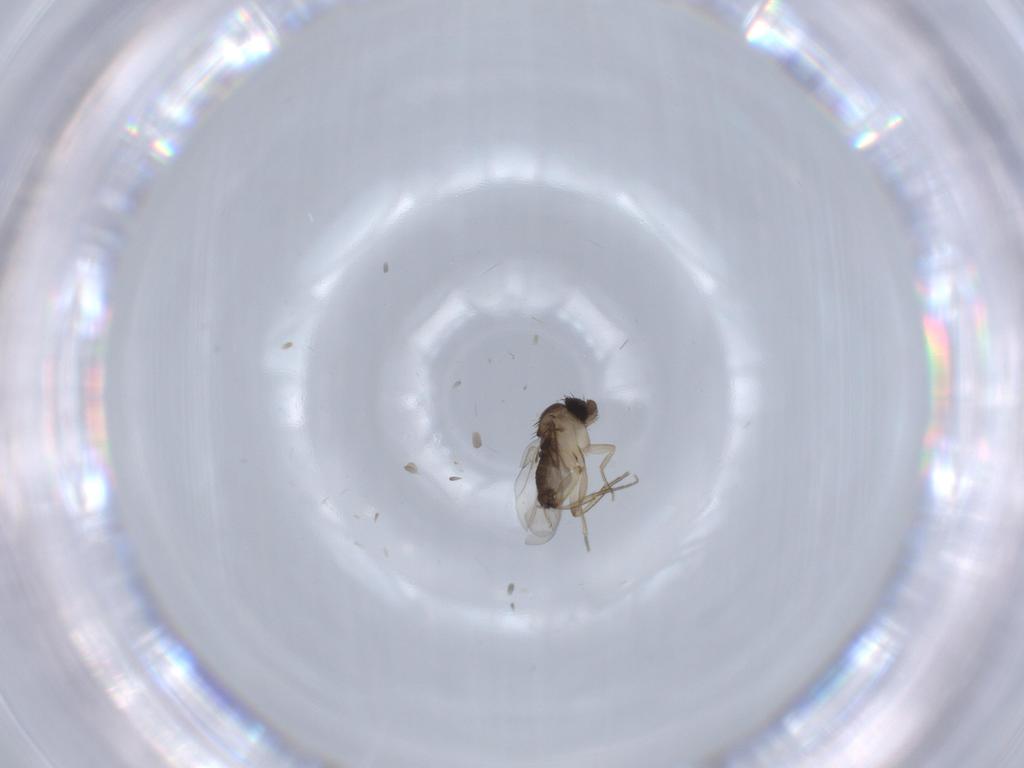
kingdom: Animalia
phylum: Arthropoda
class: Insecta
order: Diptera
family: Phoridae
